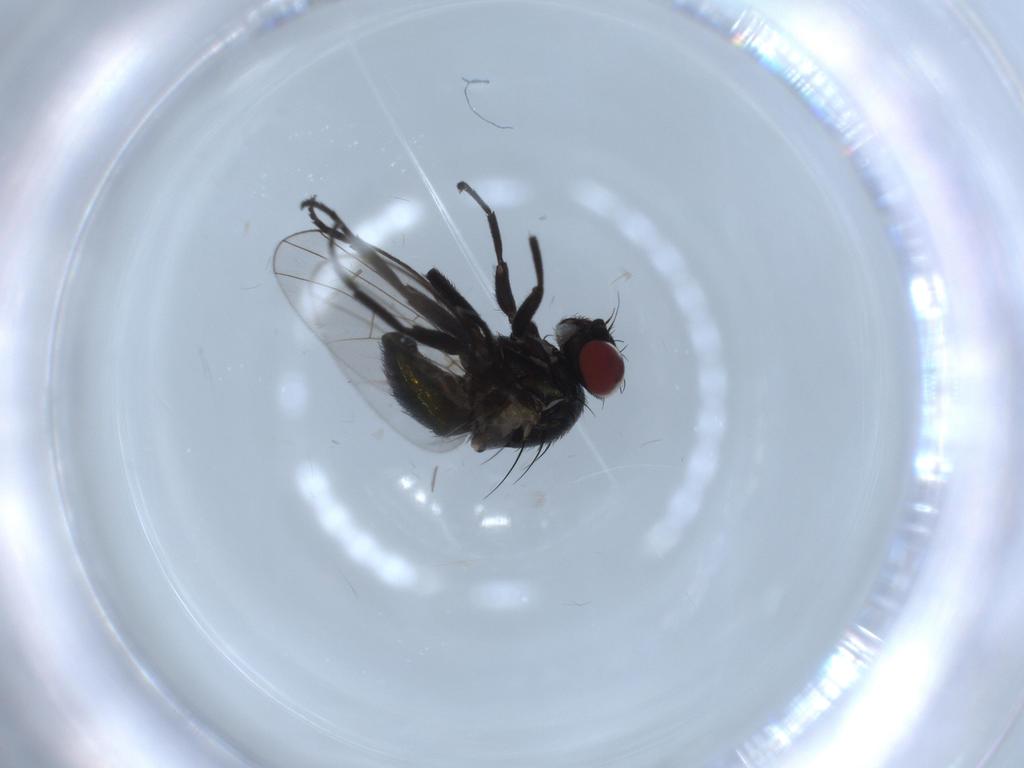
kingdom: Animalia
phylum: Arthropoda
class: Insecta
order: Diptera
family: Agromyzidae
